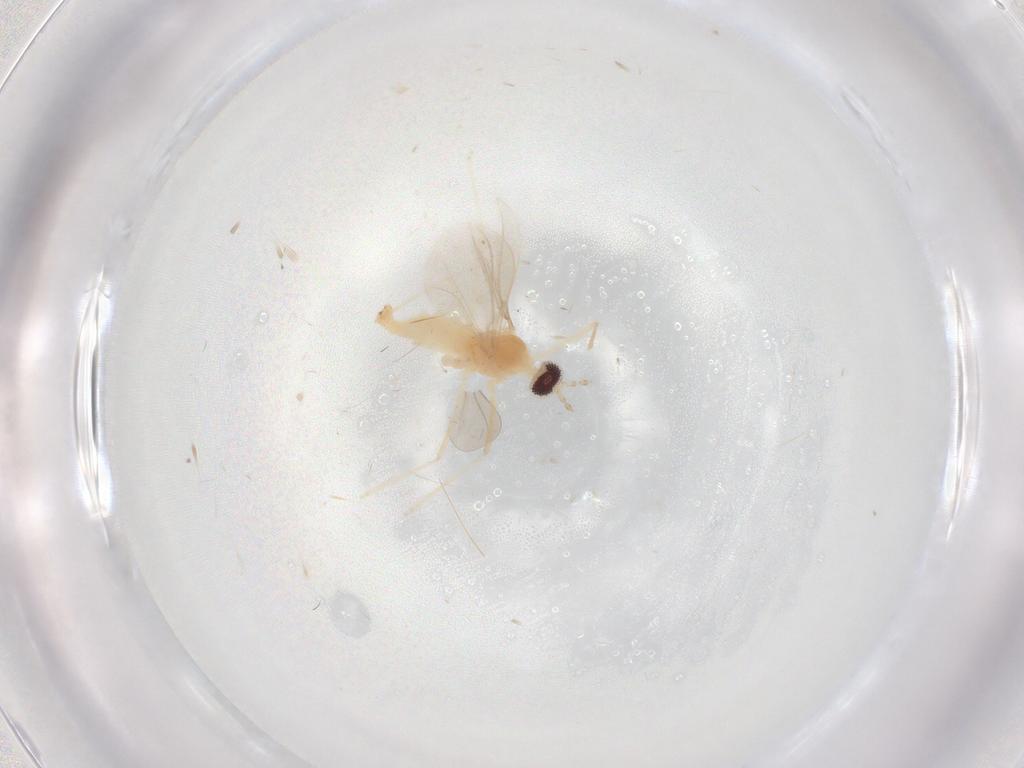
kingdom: Animalia
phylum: Arthropoda
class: Insecta
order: Diptera
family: Cecidomyiidae
